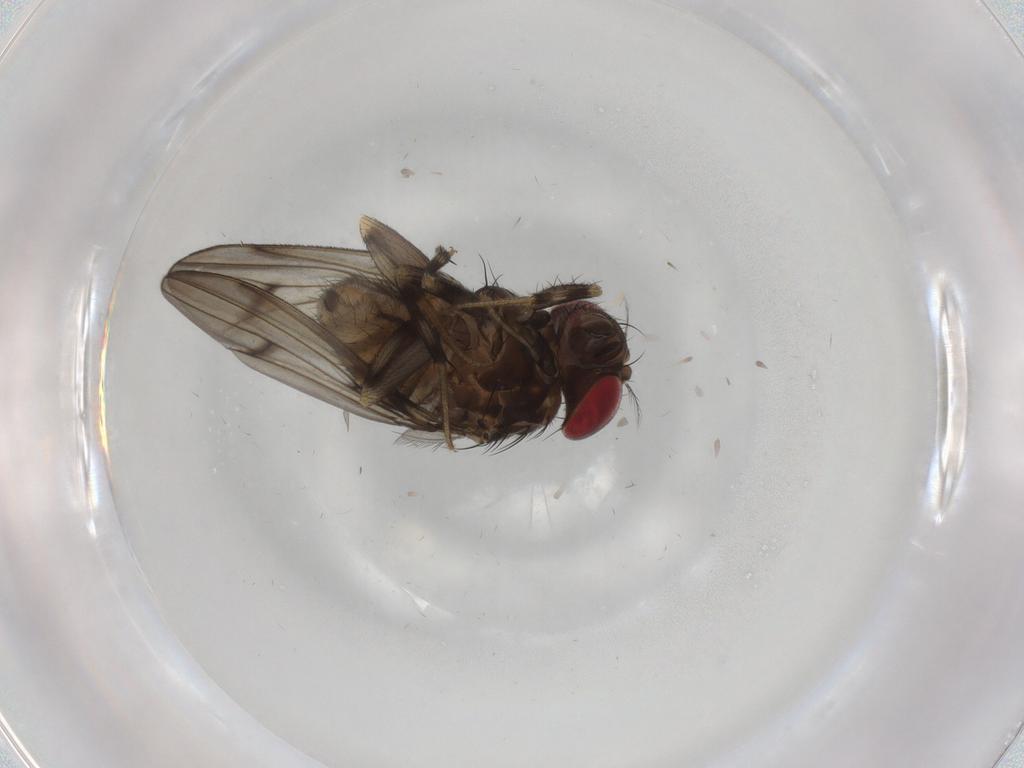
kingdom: Animalia
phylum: Arthropoda
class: Insecta
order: Diptera
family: Drosophilidae
